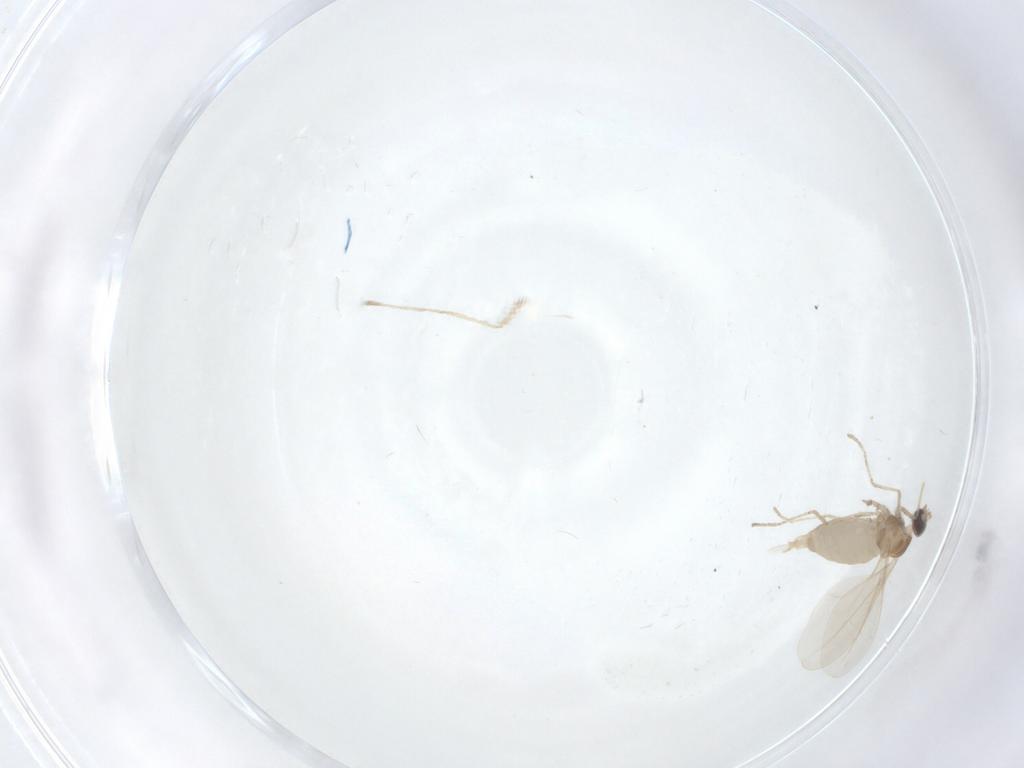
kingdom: Animalia
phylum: Arthropoda
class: Insecta
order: Diptera
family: Cecidomyiidae
